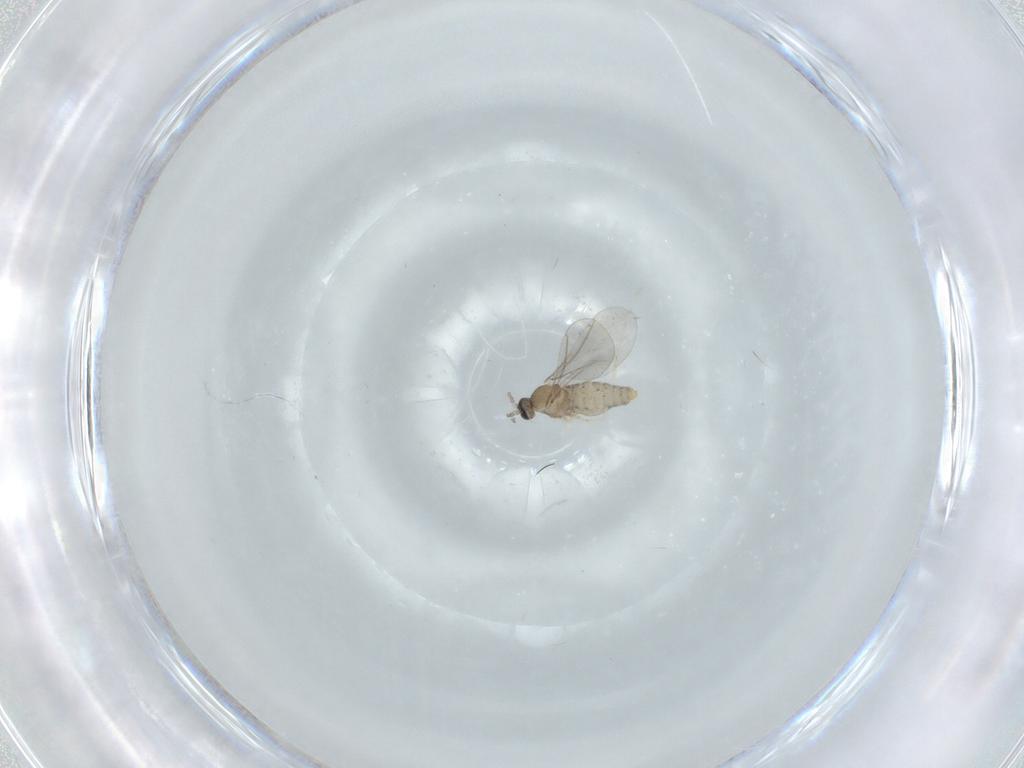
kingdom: Animalia
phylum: Arthropoda
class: Insecta
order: Diptera
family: Cecidomyiidae
